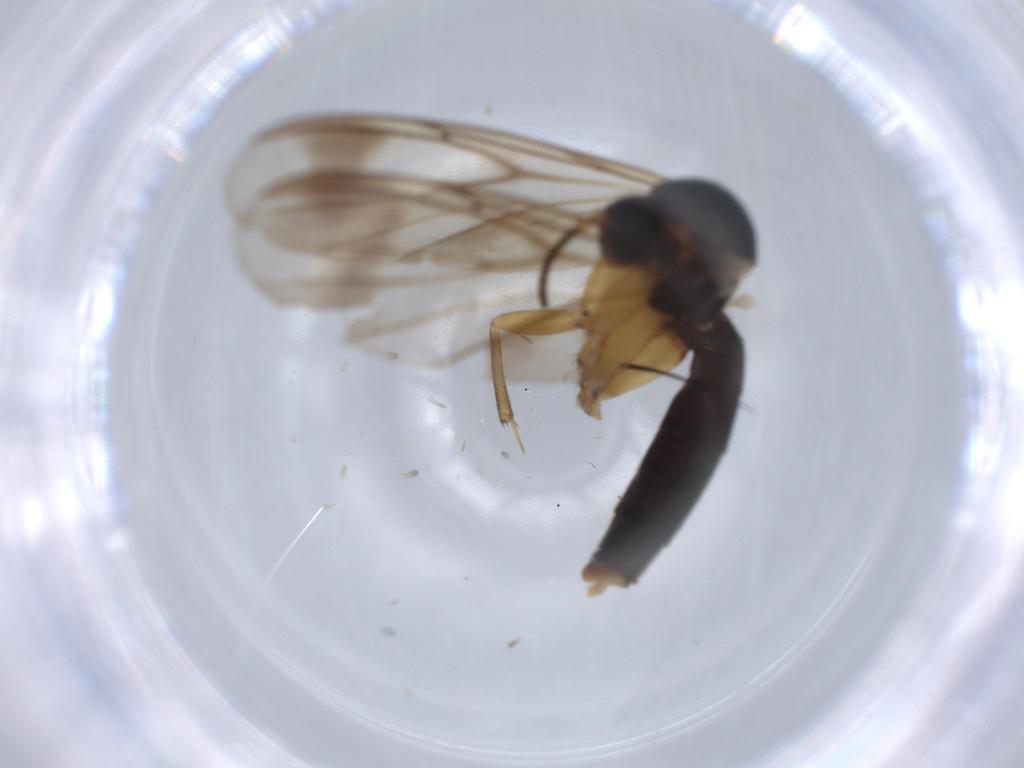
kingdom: Animalia
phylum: Arthropoda
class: Insecta
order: Diptera
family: Mycetophilidae
